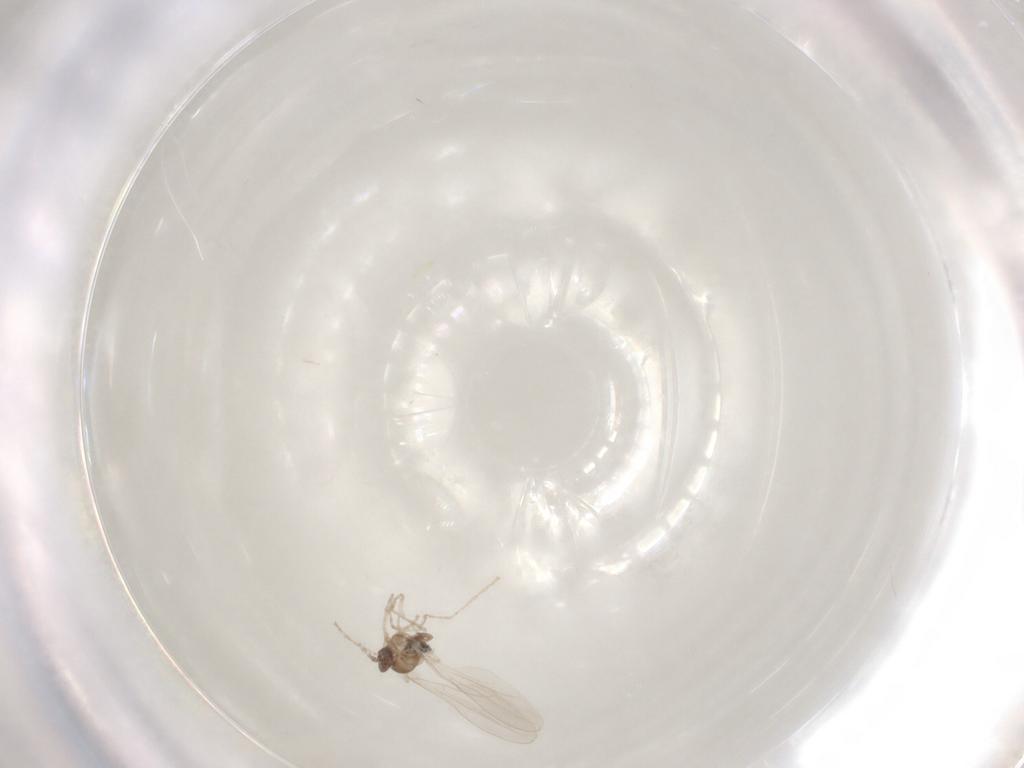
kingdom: Animalia
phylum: Arthropoda
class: Insecta
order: Diptera
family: Cecidomyiidae
